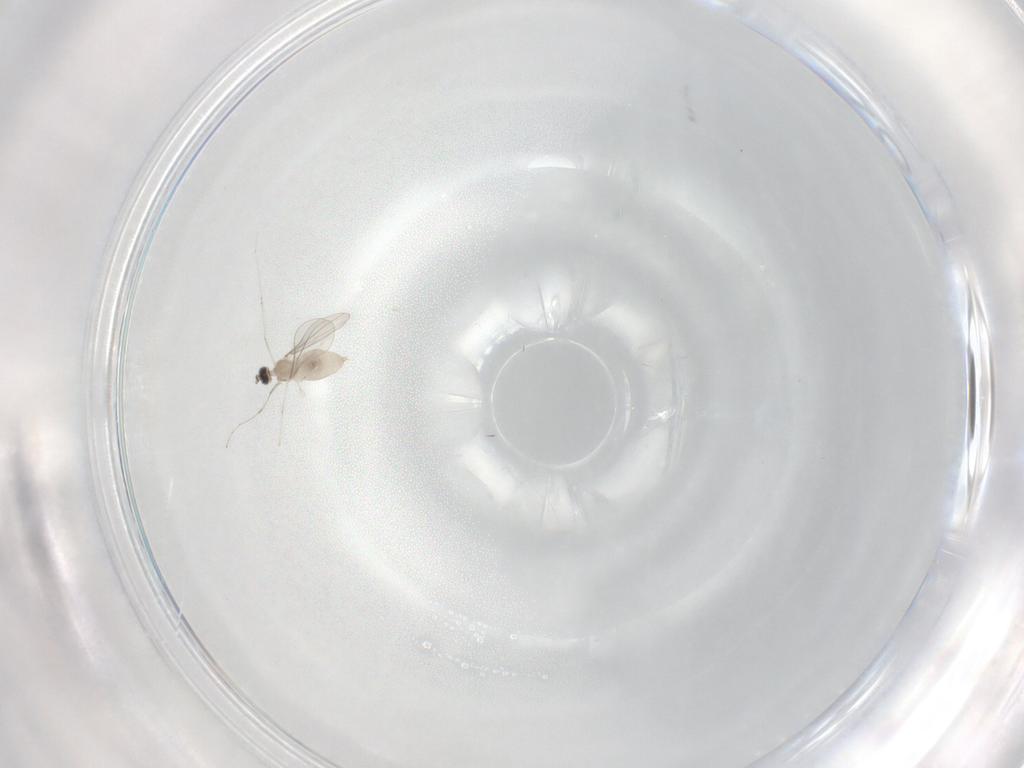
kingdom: Animalia
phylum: Arthropoda
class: Insecta
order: Diptera
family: Cecidomyiidae
